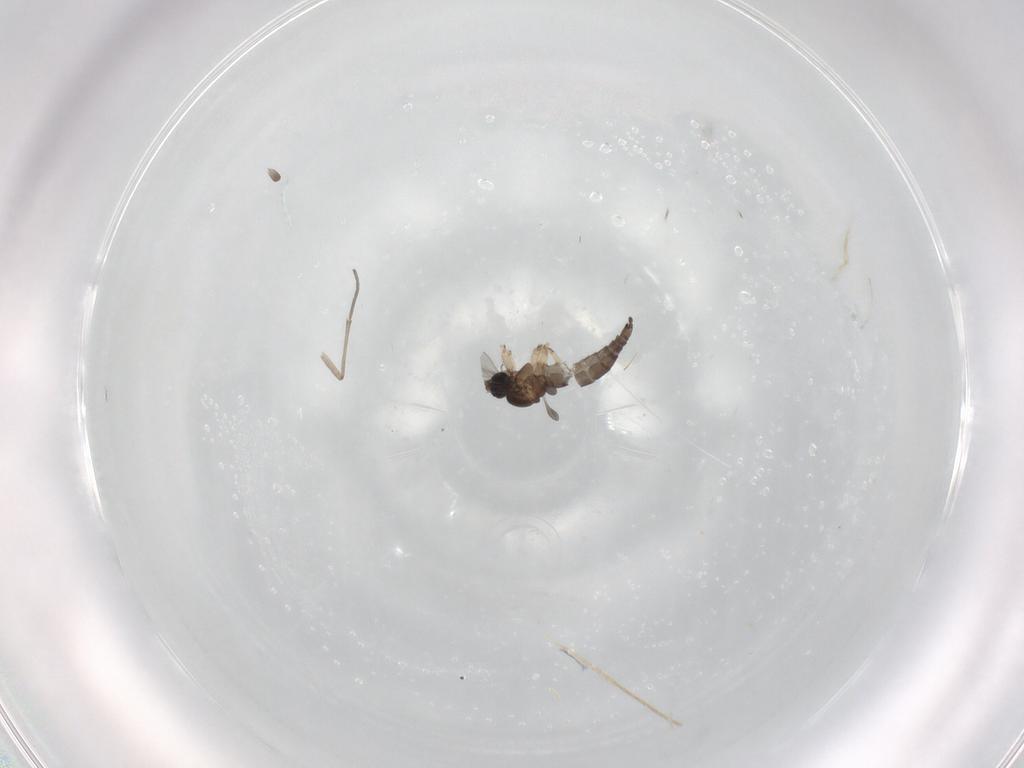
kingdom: Animalia
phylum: Arthropoda
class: Insecta
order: Diptera
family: Sciaridae
